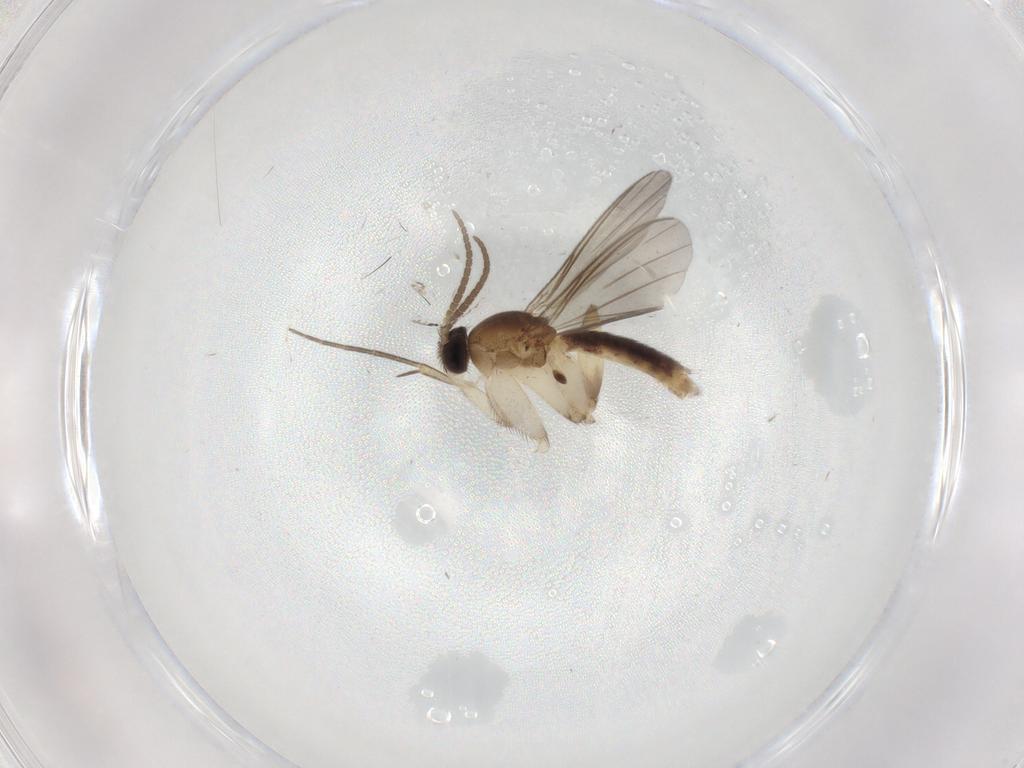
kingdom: Animalia
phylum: Arthropoda
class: Insecta
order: Diptera
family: Mycetophilidae
